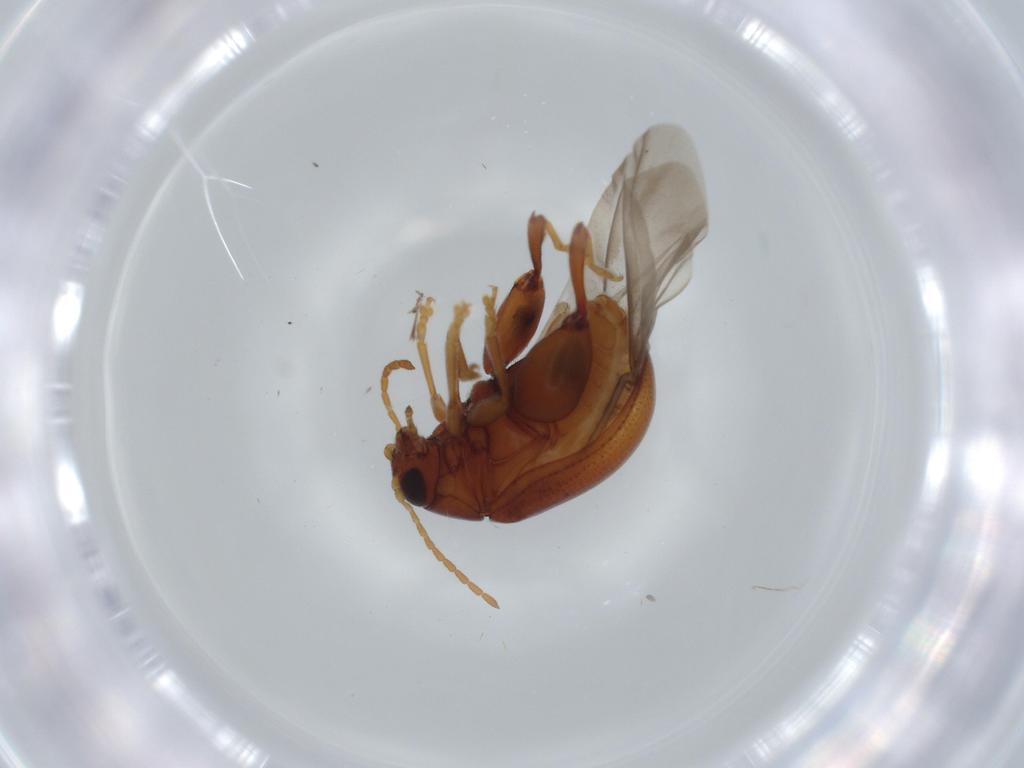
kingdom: Animalia
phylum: Arthropoda
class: Insecta
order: Coleoptera
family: Chrysomelidae
